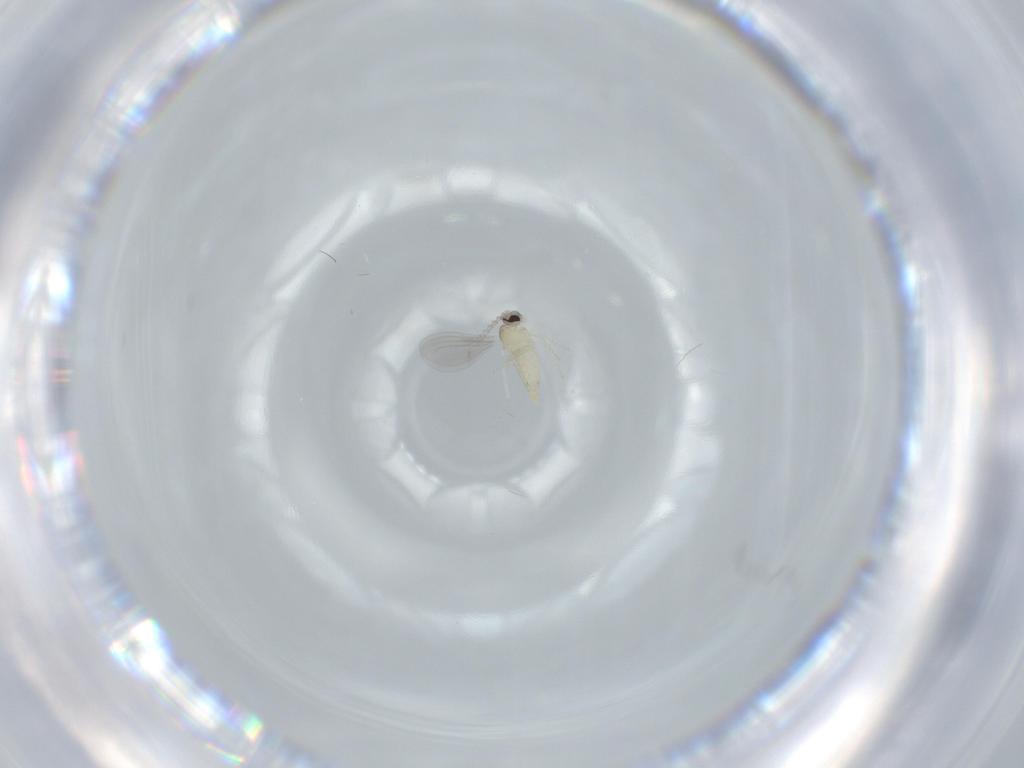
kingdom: Animalia
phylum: Arthropoda
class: Insecta
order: Diptera
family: Cecidomyiidae
